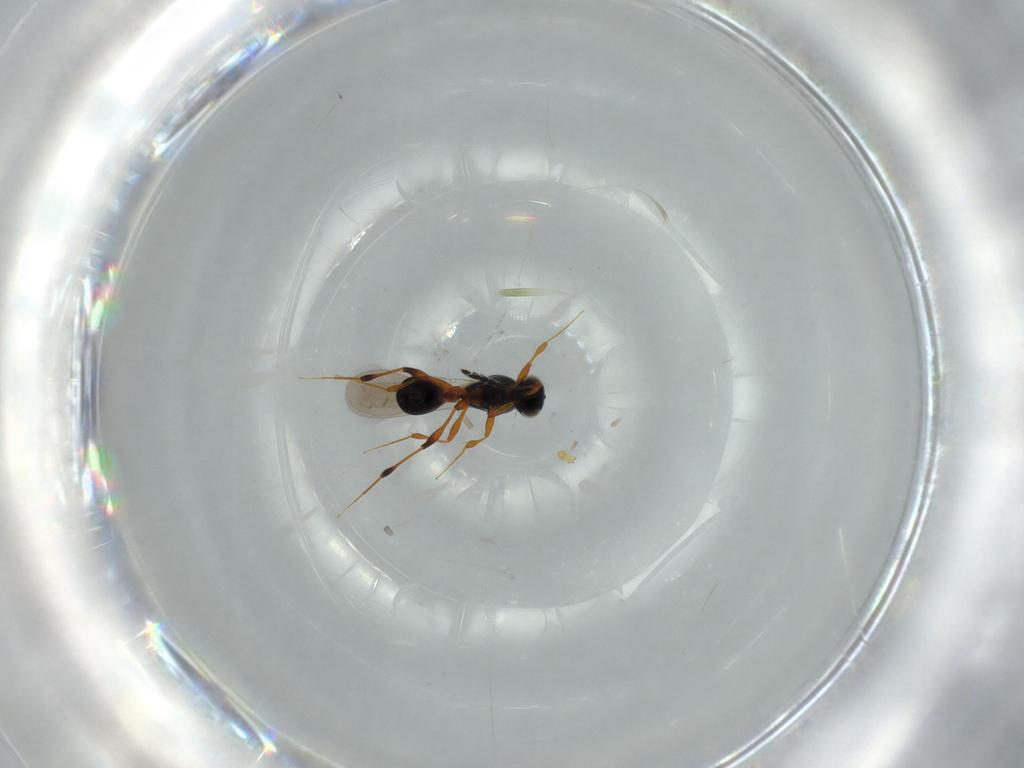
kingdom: Animalia
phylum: Arthropoda
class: Insecta
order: Hymenoptera
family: Platygastridae
